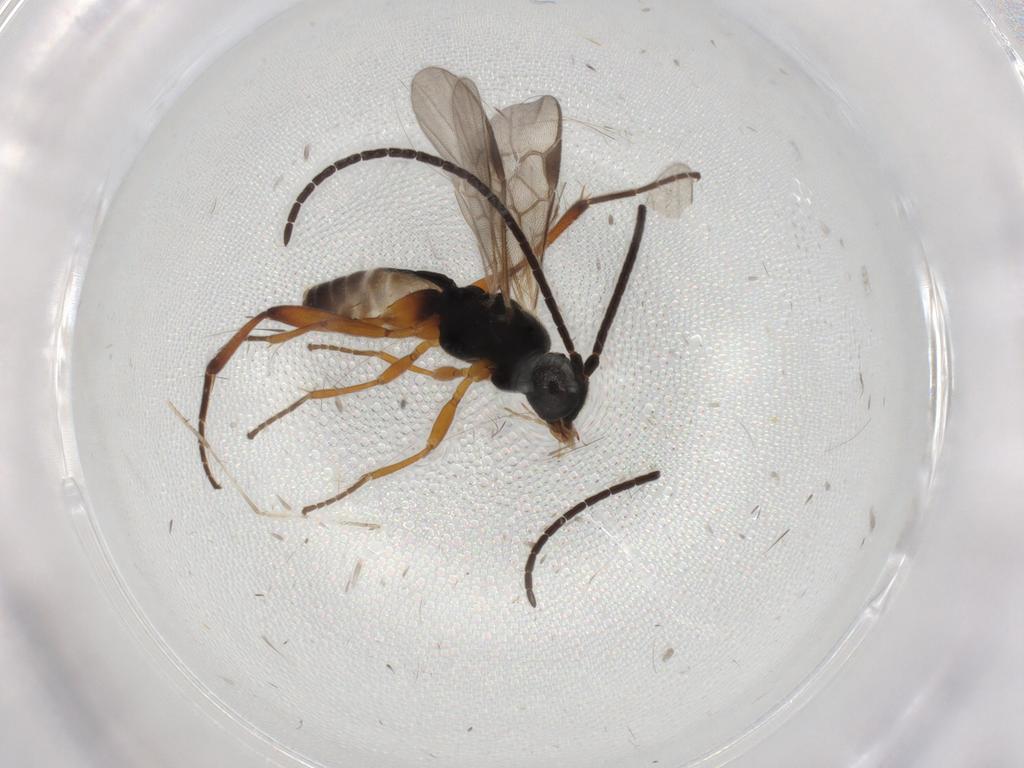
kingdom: Animalia
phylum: Arthropoda
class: Insecta
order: Hymenoptera
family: Braconidae
